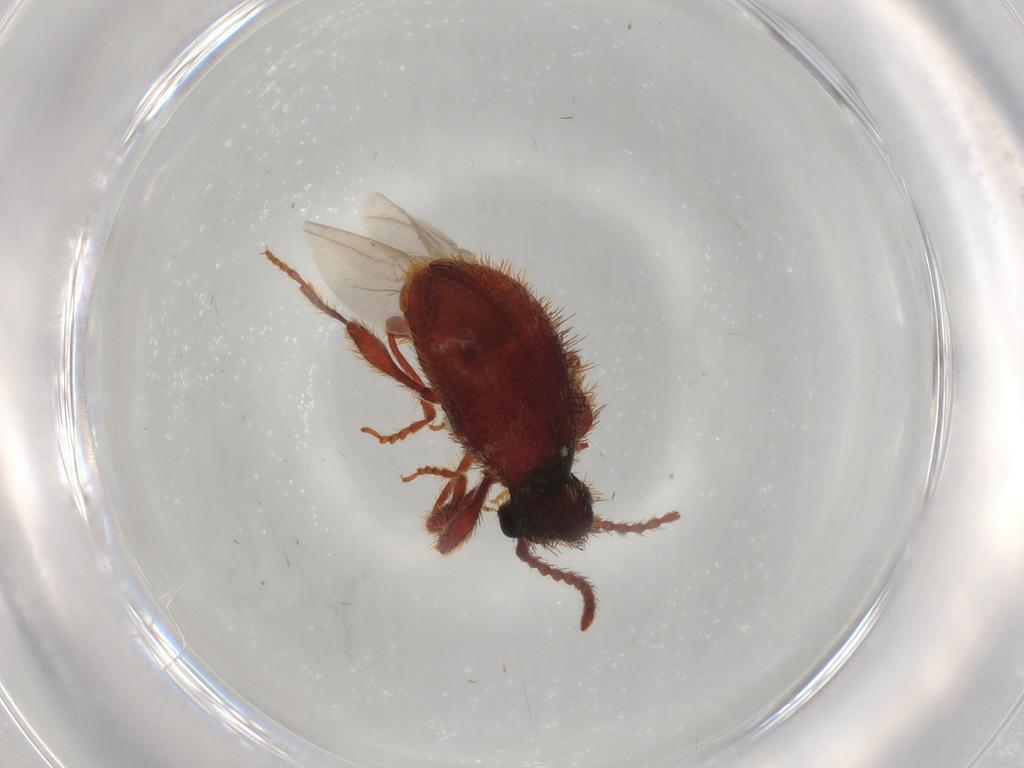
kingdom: Animalia
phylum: Arthropoda
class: Insecta
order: Coleoptera
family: Ptinidae
